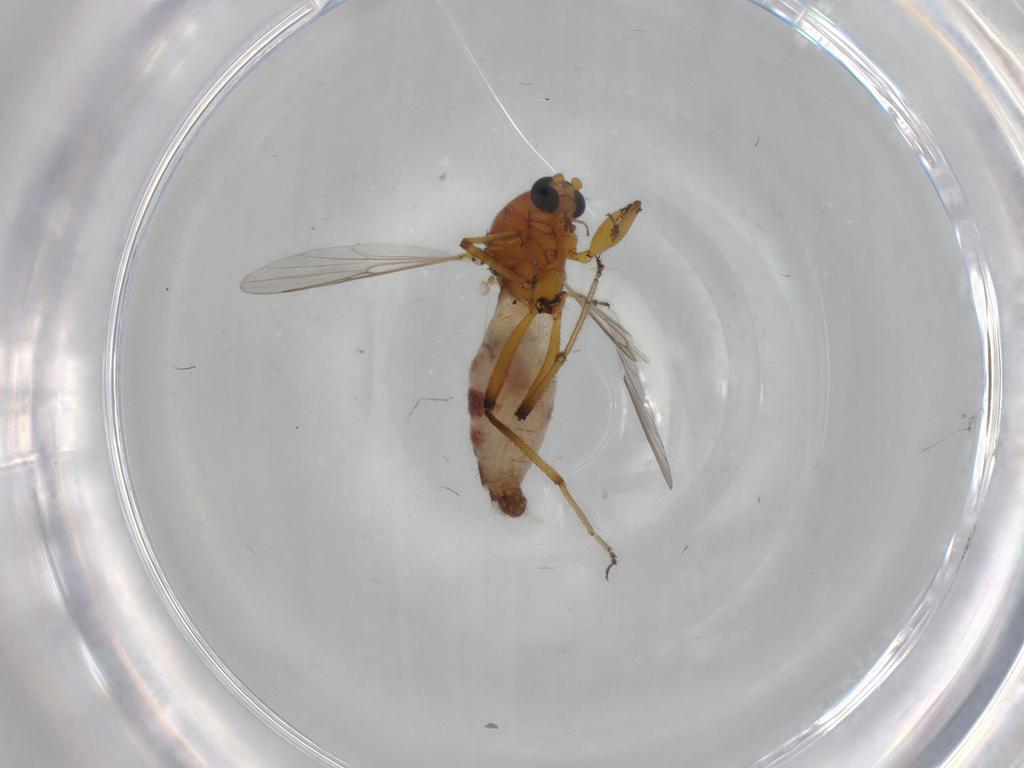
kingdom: Animalia
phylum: Arthropoda
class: Insecta
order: Diptera
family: Ceratopogonidae
